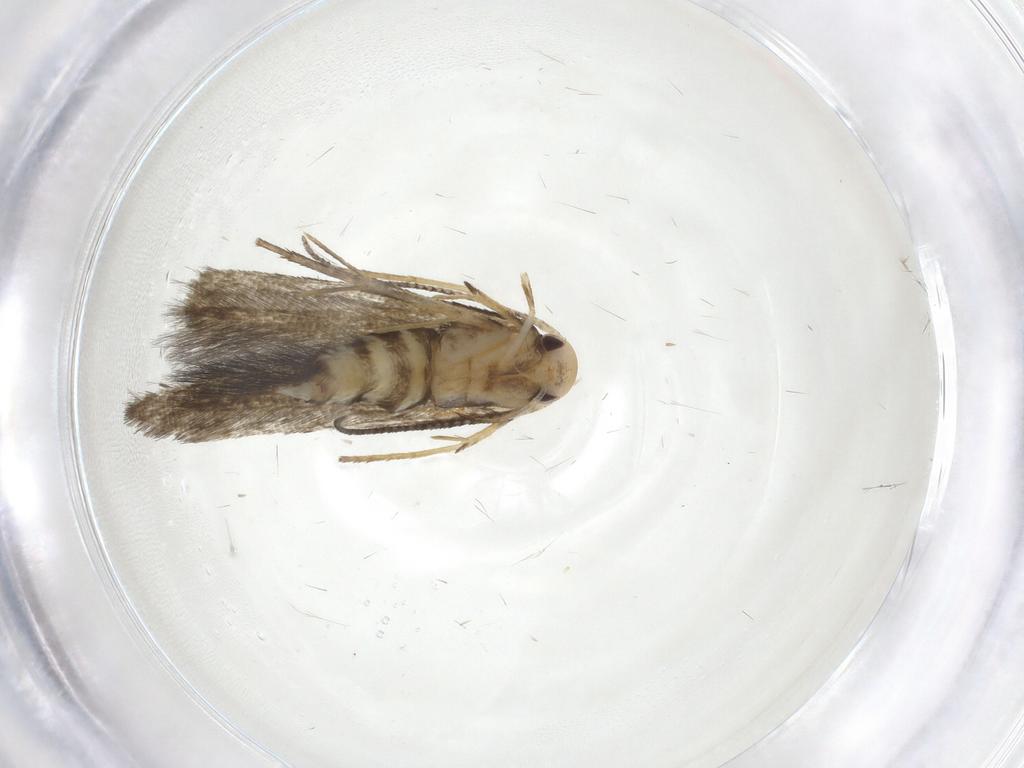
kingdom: Animalia
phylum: Arthropoda
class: Insecta
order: Lepidoptera
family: Stathmopodidae
